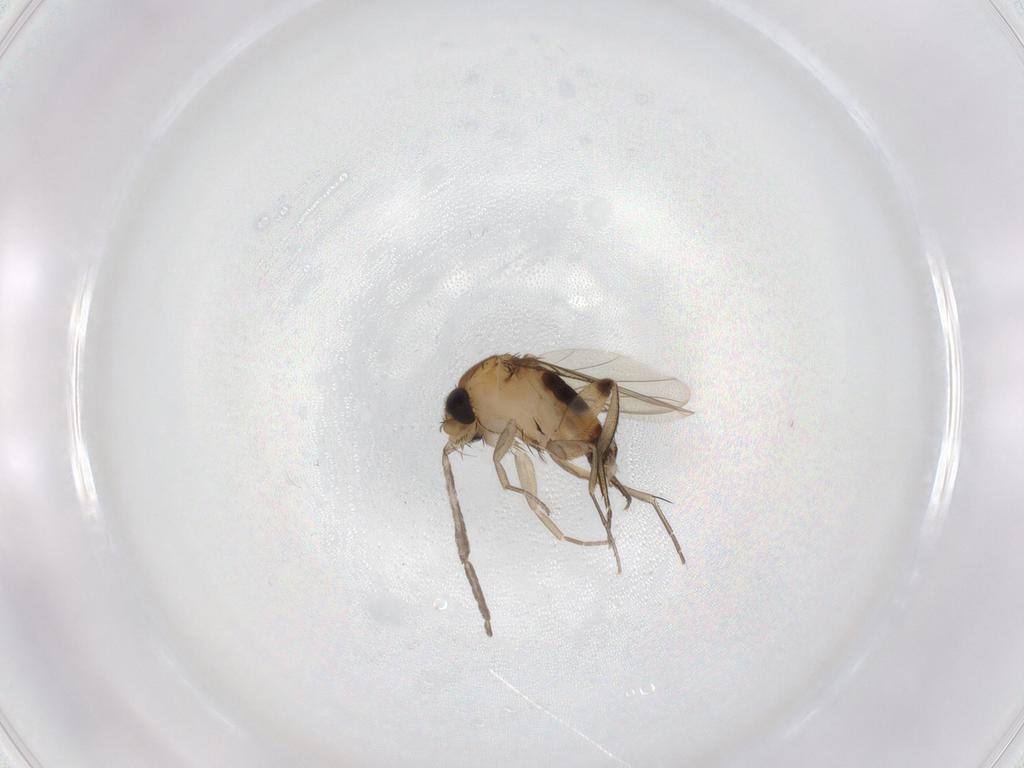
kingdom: Animalia
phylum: Arthropoda
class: Insecta
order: Diptera
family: Phoridae
